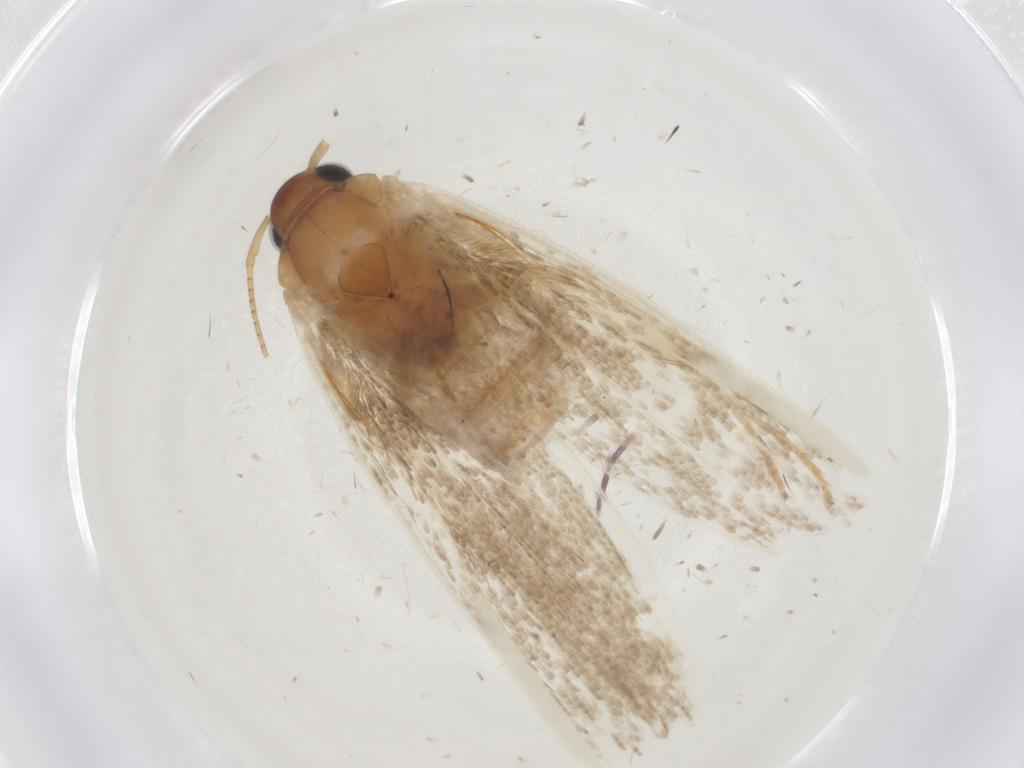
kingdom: Animalia
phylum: Arthropoda
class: Insecta
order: Lepidoptera
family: Blastobasidae
